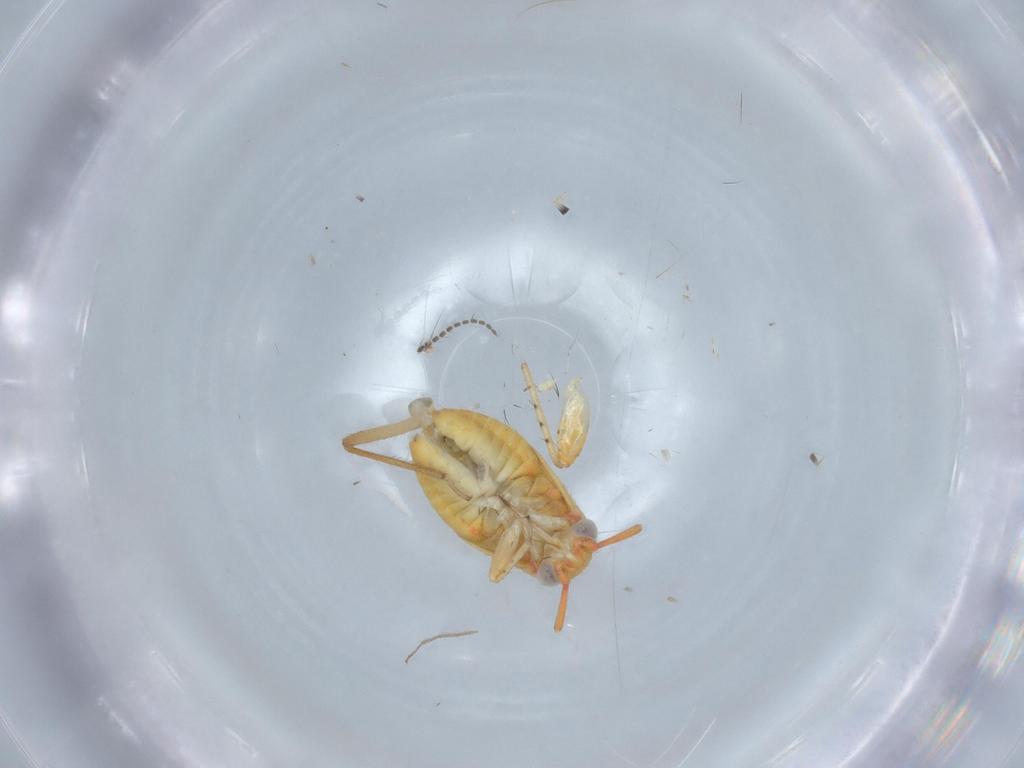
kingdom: Animalia
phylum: Arthropoda
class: Insecta
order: Hemiptera
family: Miridae
